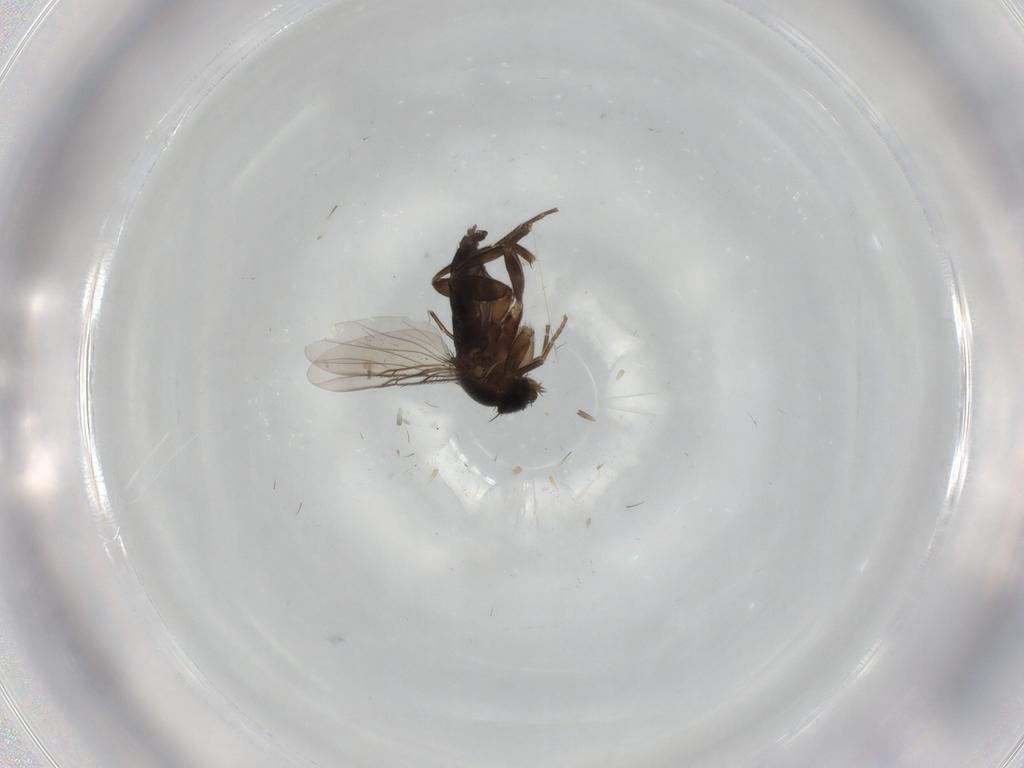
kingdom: Animalia
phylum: Arthropoda
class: Insecta
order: Diptera
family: Phoridae
